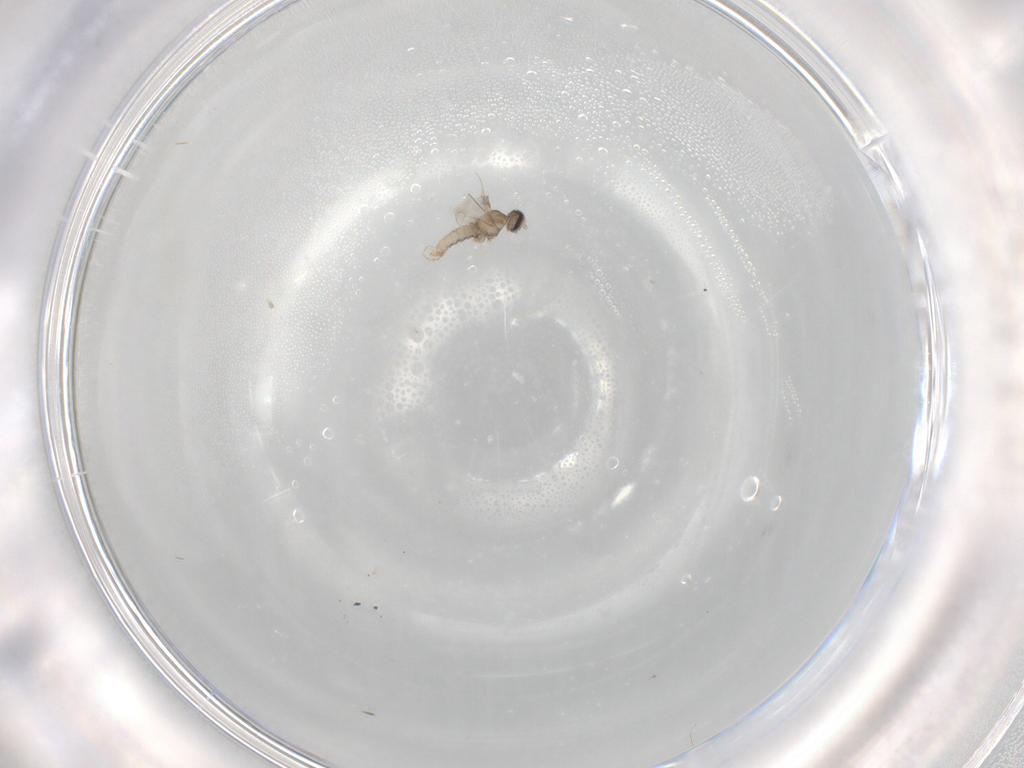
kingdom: Animalia
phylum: Arthropoda
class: Insecta
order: Diptera
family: Cecidomyiidae
